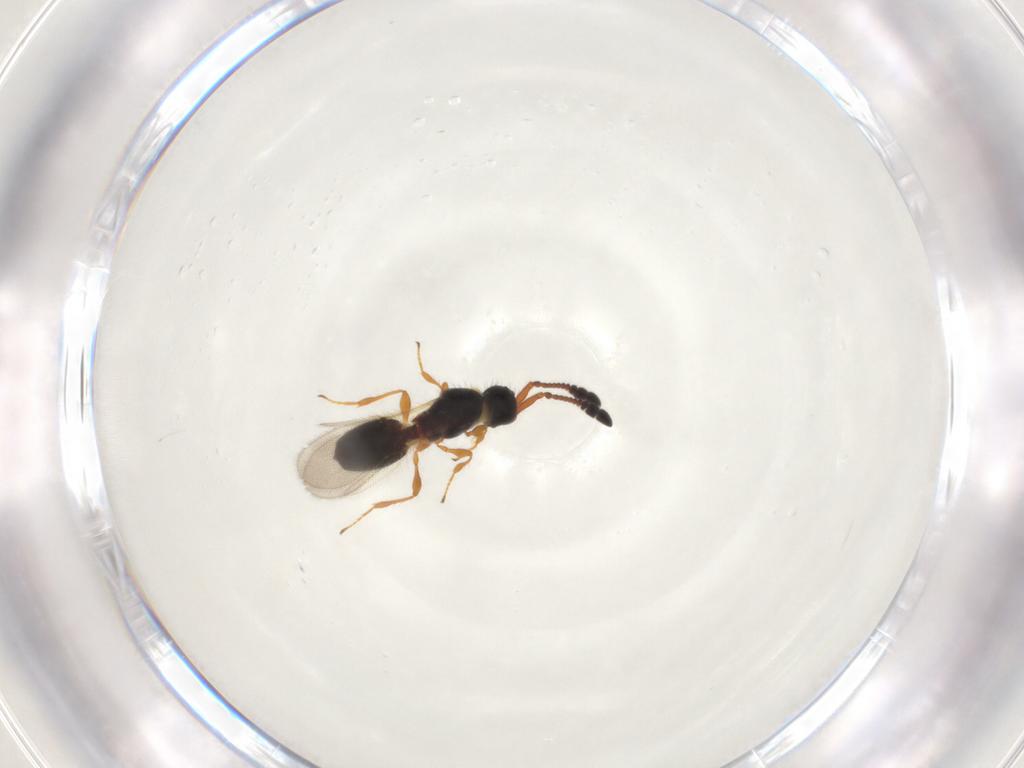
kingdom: Animalia
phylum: Arthropoda
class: Insecta
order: Hymenoptera
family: Diapriidae
